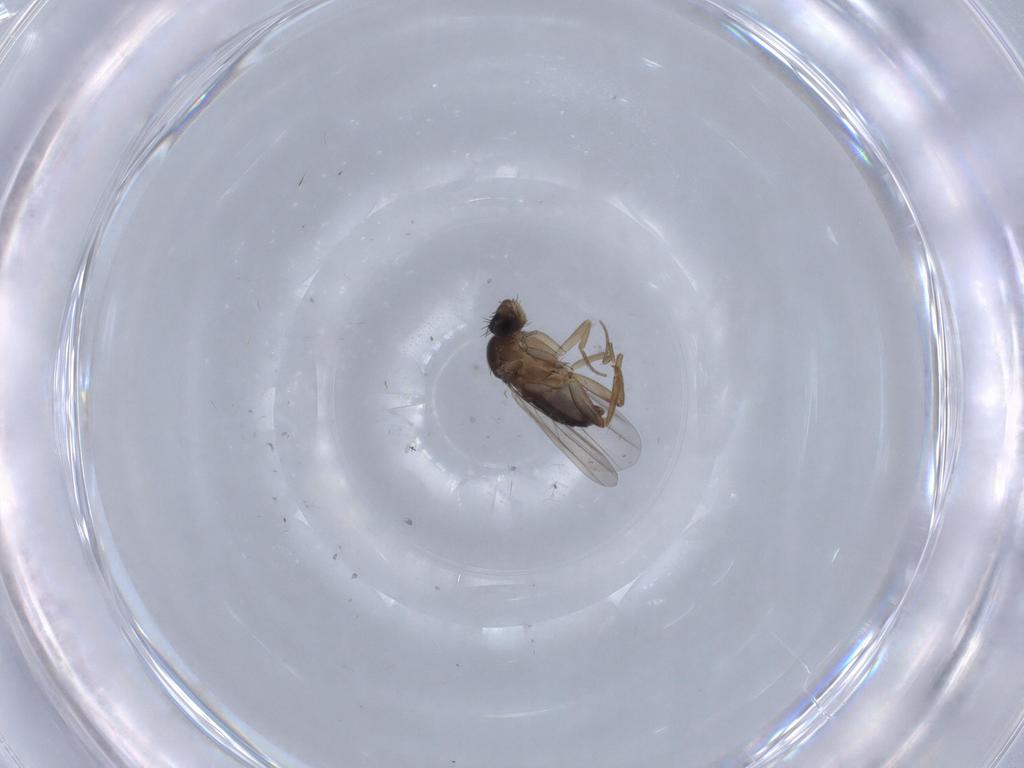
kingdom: Animalia
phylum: Arthropoda
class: Insecta
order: Diptera
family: Phoridae
